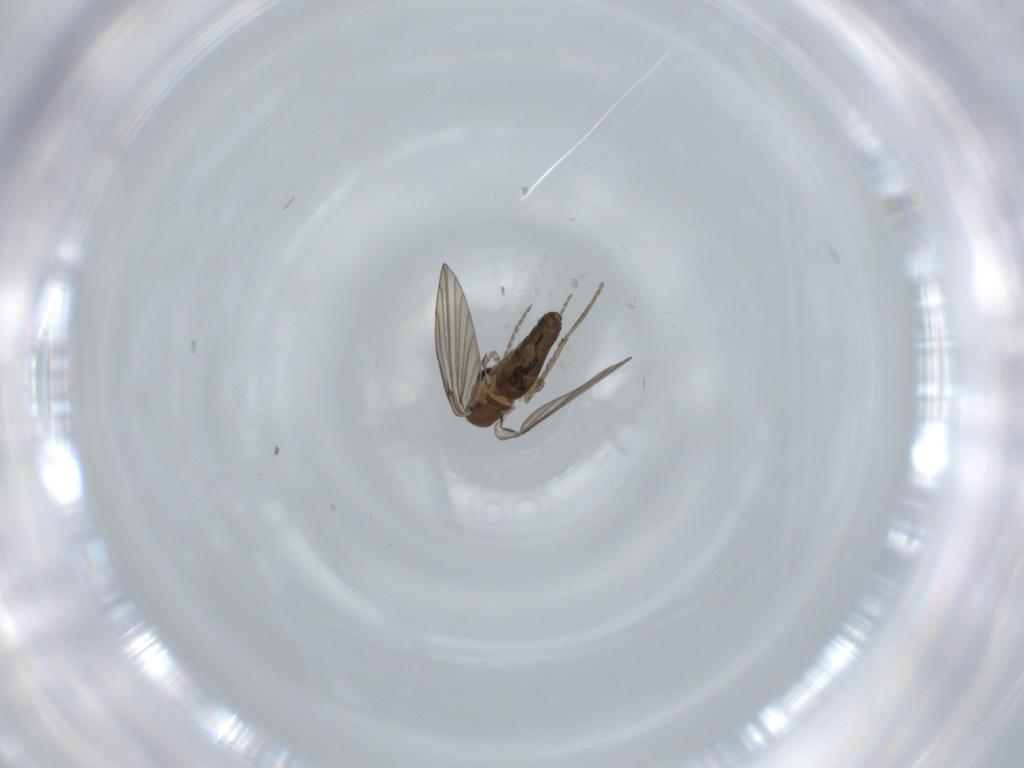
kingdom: Animalia
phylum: Arthropoda
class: Insecta
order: Diptera
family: Psychodidae
